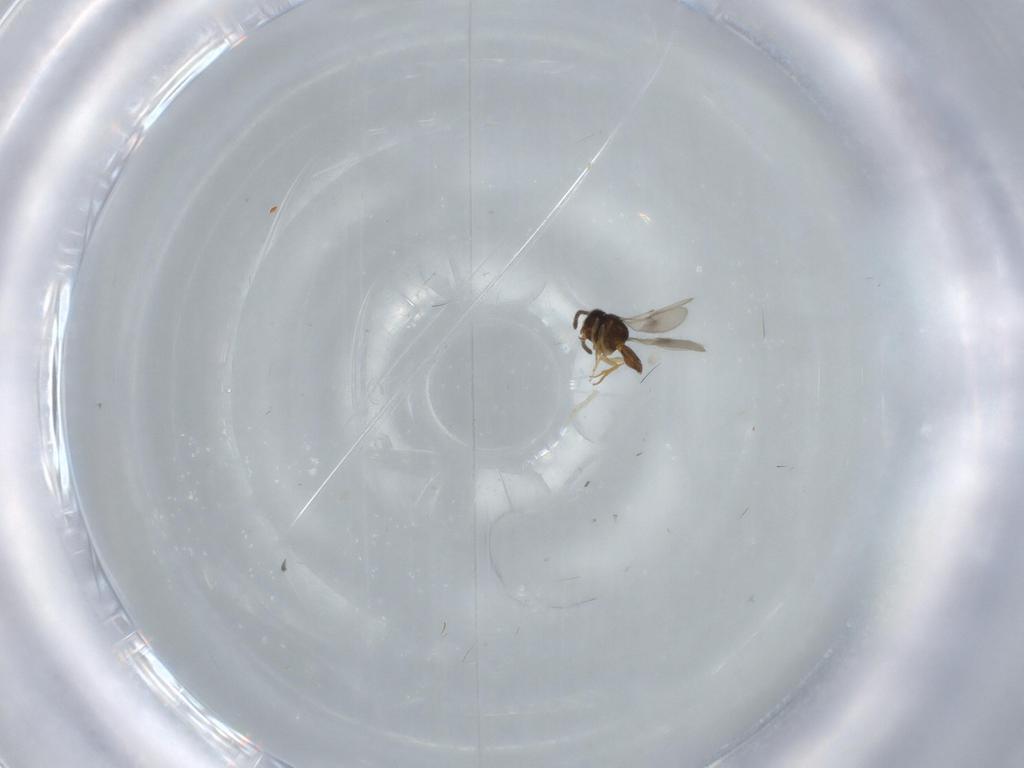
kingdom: Animalia
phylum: Arthropoda
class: Insecta
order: Hymenoptera
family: Scelionidae
